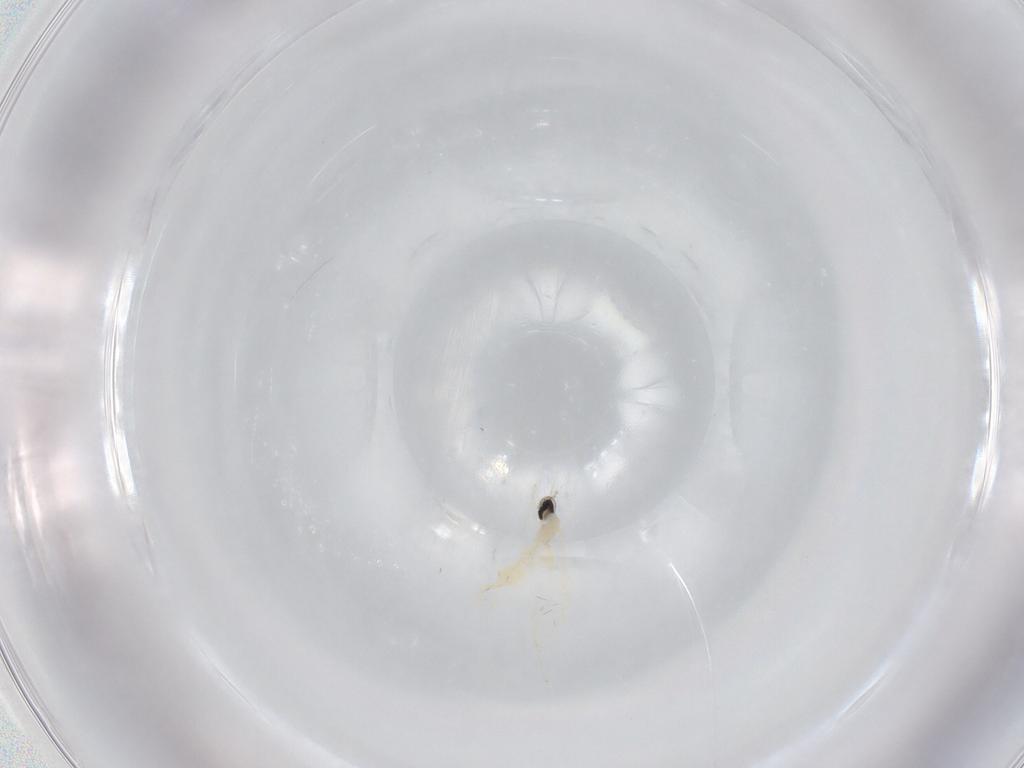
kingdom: Animalia
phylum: Arthropoda
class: Insecta
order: Diptera
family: Cecidomyiidae
